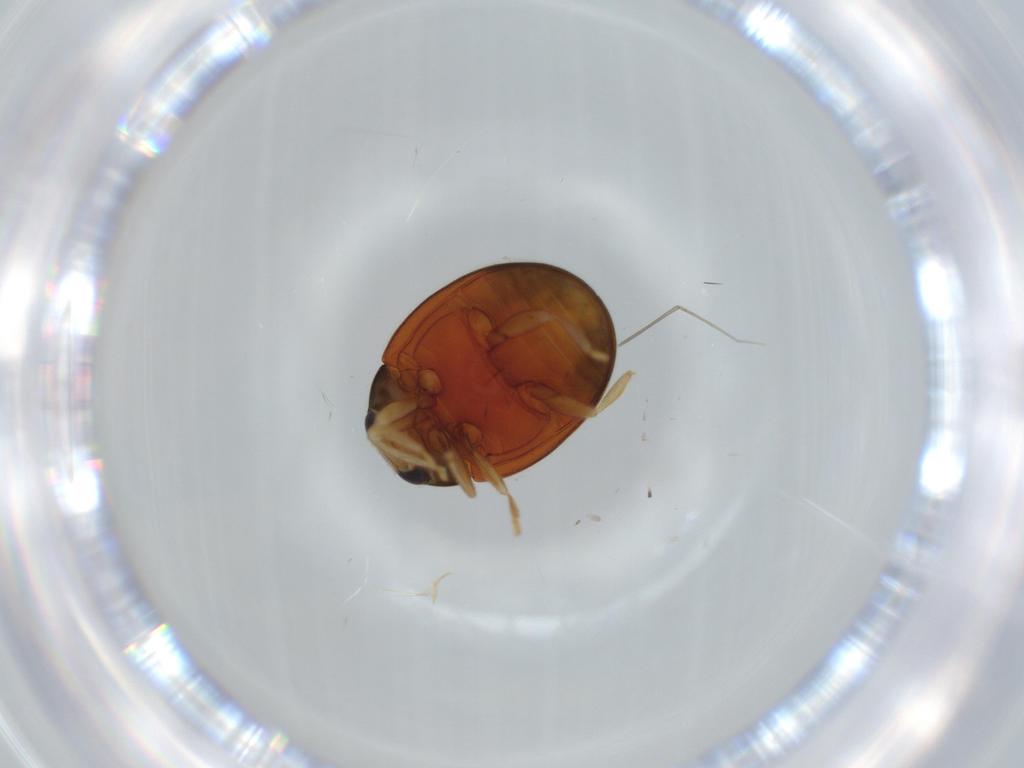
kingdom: Animalia
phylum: Arthropoda
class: Insecta
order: Coleoptera
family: Coccinellidae
